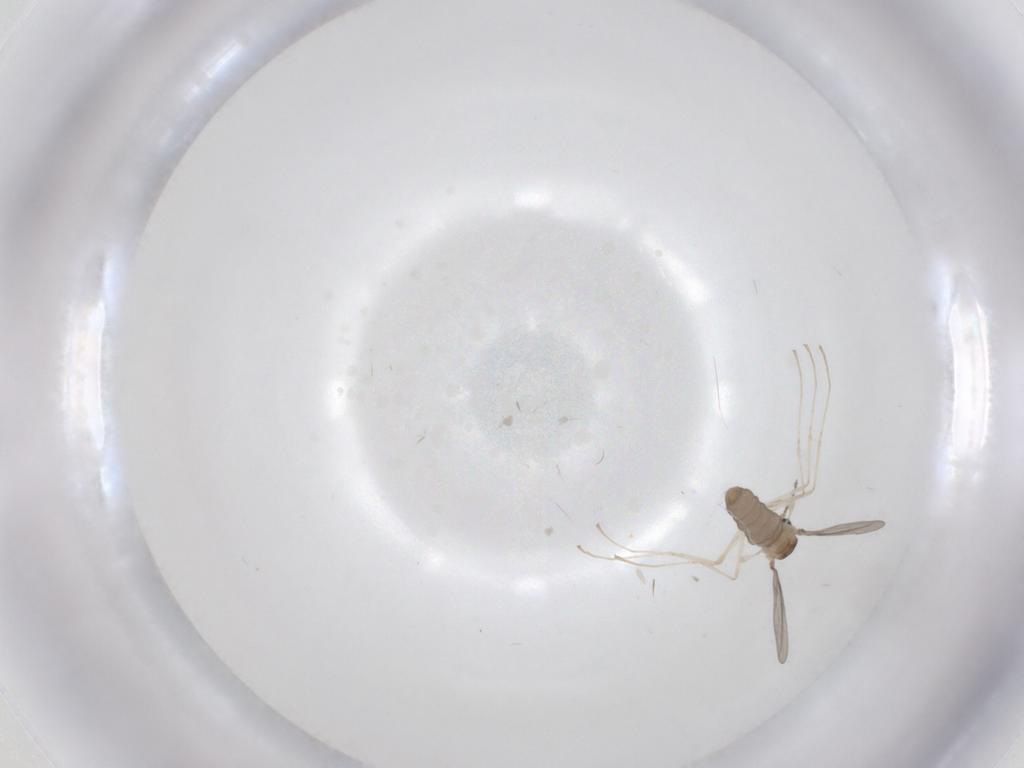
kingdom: Animalia
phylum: Arthropoda
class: Insecta
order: Diptera
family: Cecidomyiidae
